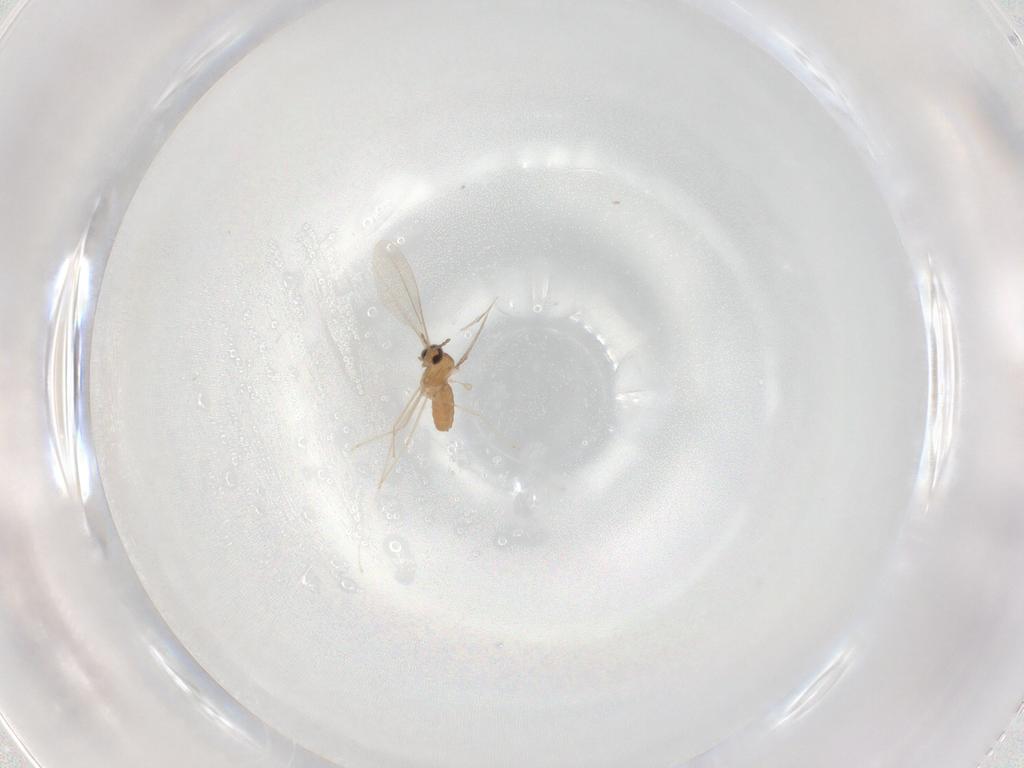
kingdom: Animalia
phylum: Arthropoda
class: Insecta
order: Diptera
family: Cecidomyiidae
